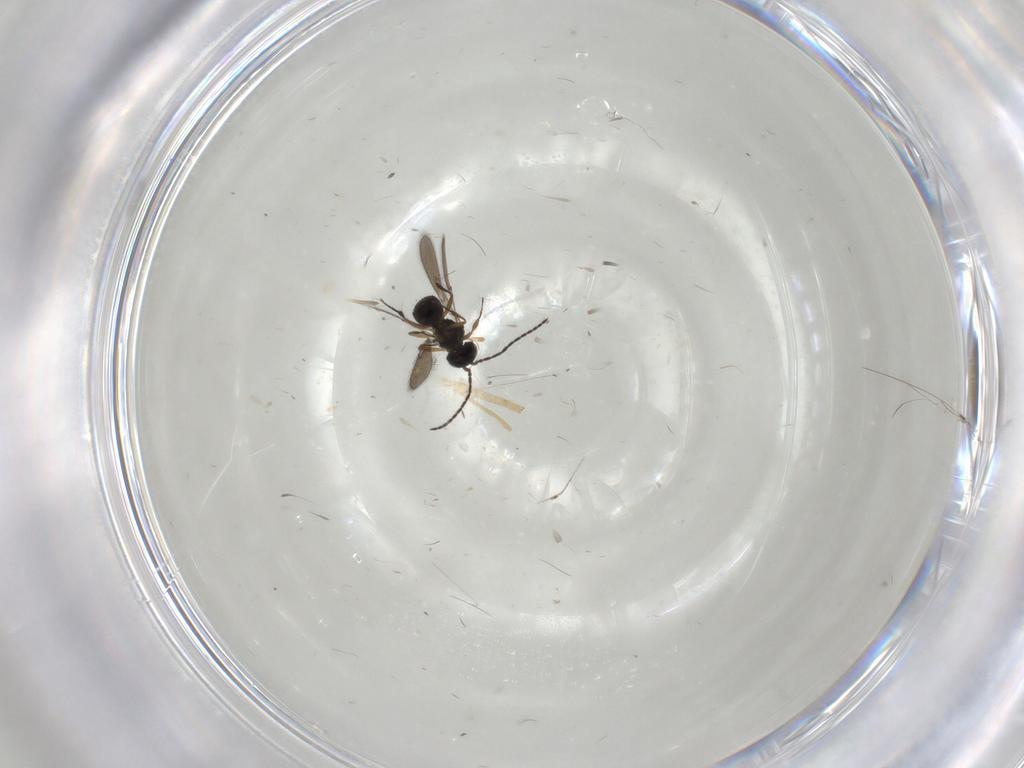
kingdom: Animalia
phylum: Arthropoda
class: Insecta
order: Hymenoptera
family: Scelionidae
